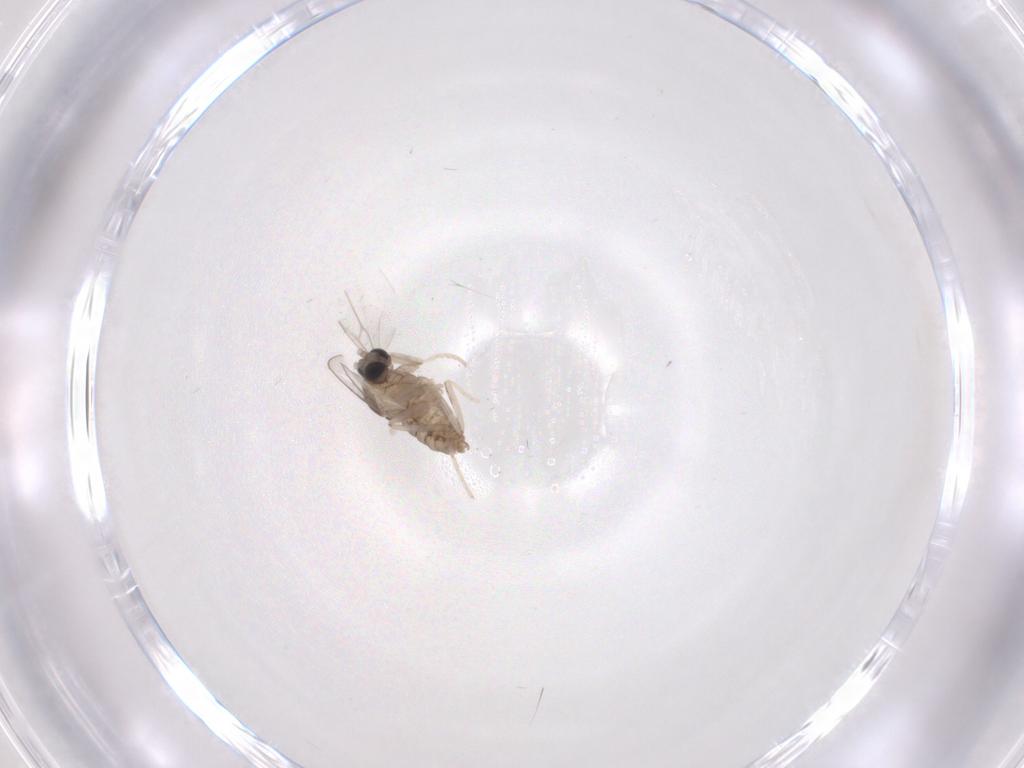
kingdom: Animalia
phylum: Arthropoda
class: Insecta
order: Diptera
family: Cecidomyiidae
